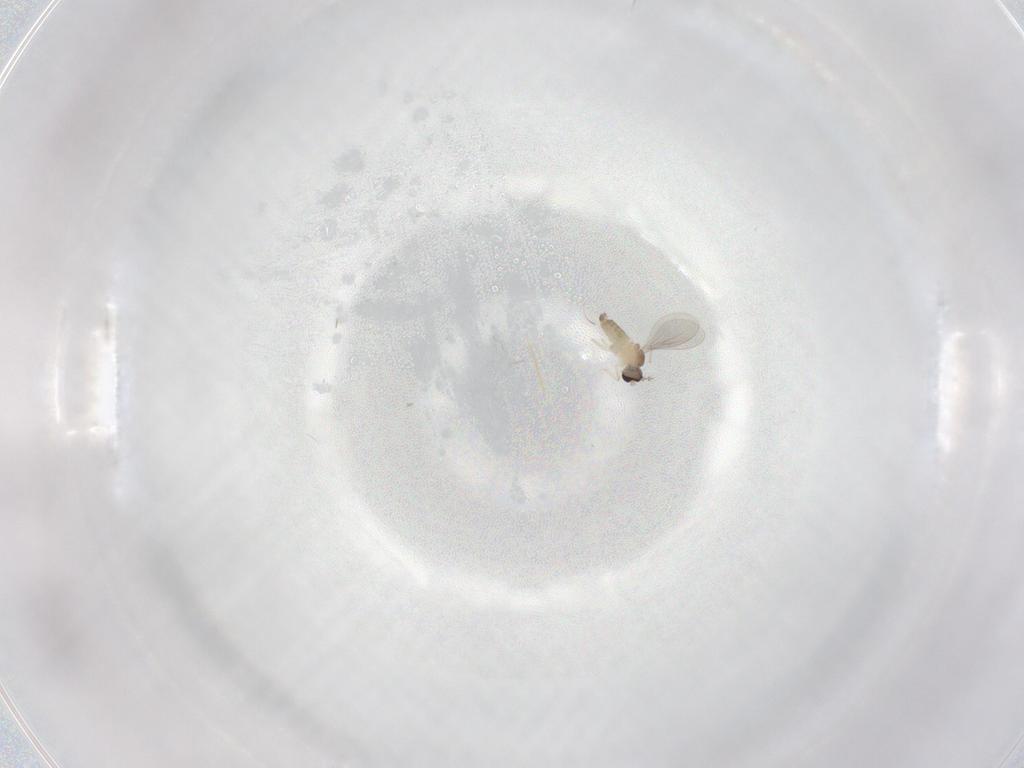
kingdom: Animalia
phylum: Arthropoda
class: Insecta
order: Diptera
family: Cecidomyiidae
